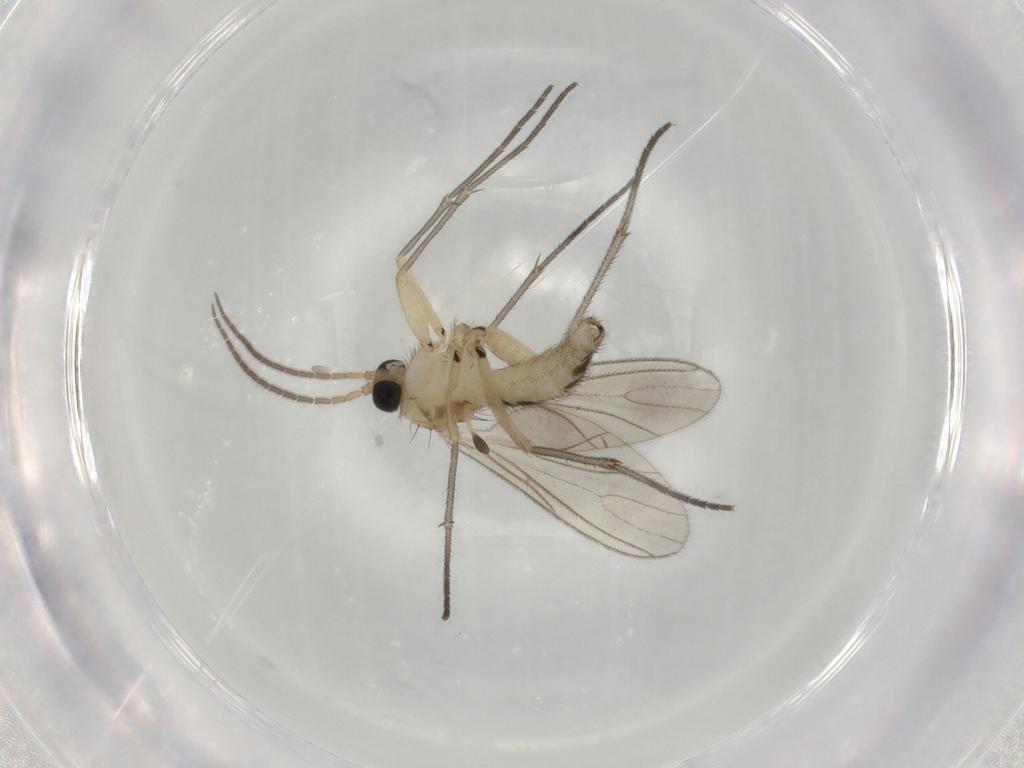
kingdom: Animalia
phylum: Arthropoda
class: Insecta
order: Diptera
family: Ceratopogonidae
